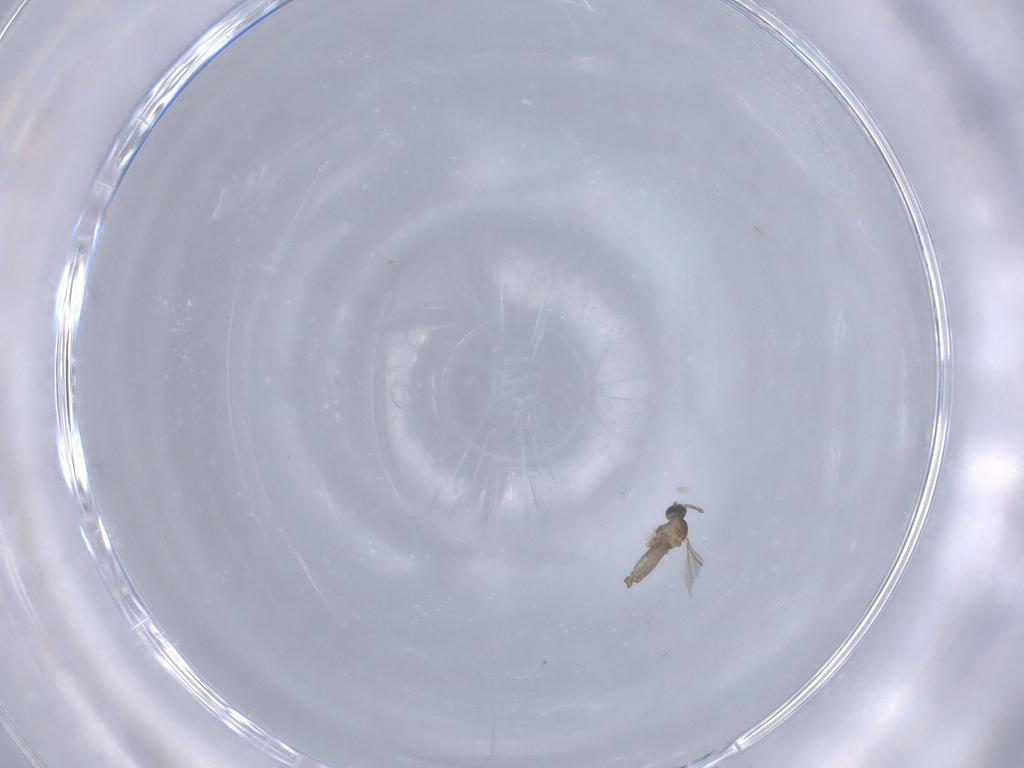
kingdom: Animalia
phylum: Arthropoda
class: Insecta
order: Diptera
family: Cecidomyiidae
